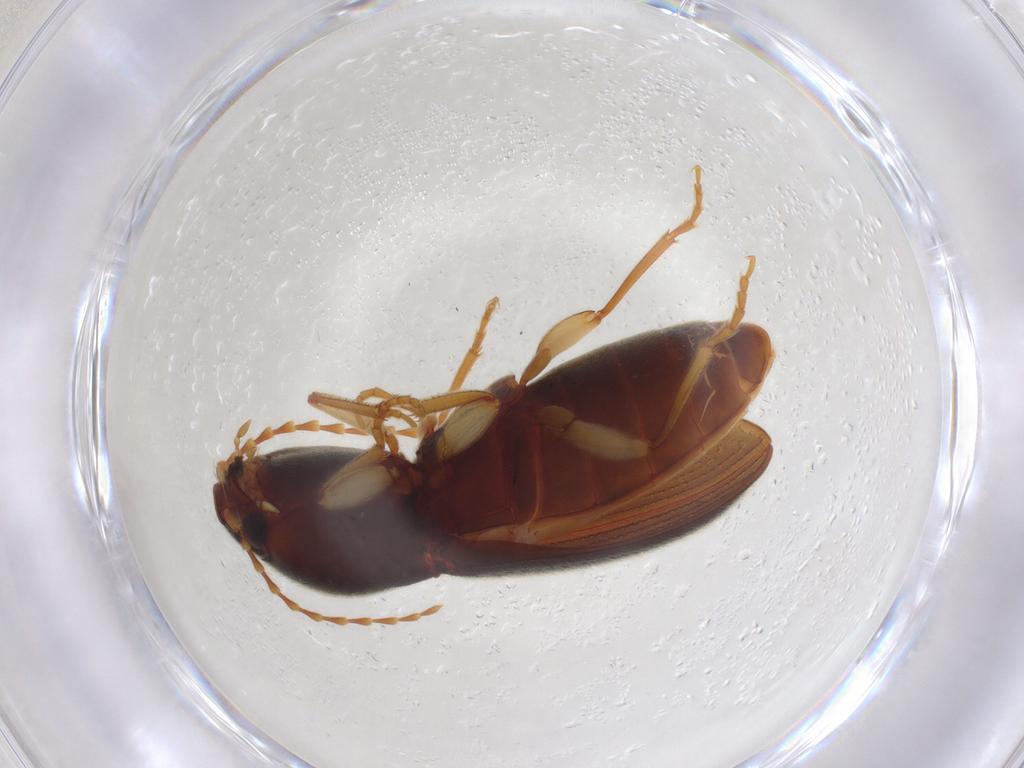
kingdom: Animalia
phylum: Arthropoda
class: Insecta
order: Coleoptera
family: Elateridae
